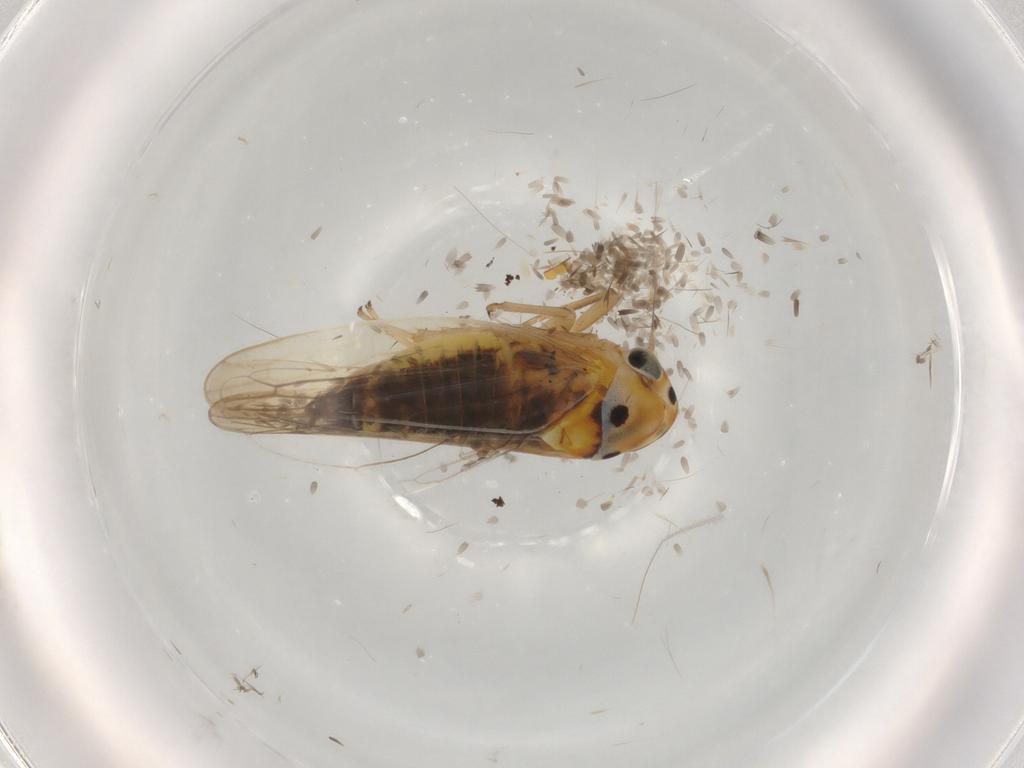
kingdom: Animalia
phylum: Arthropoda
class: Insecta
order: Hemiptera
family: Cicadellidae
